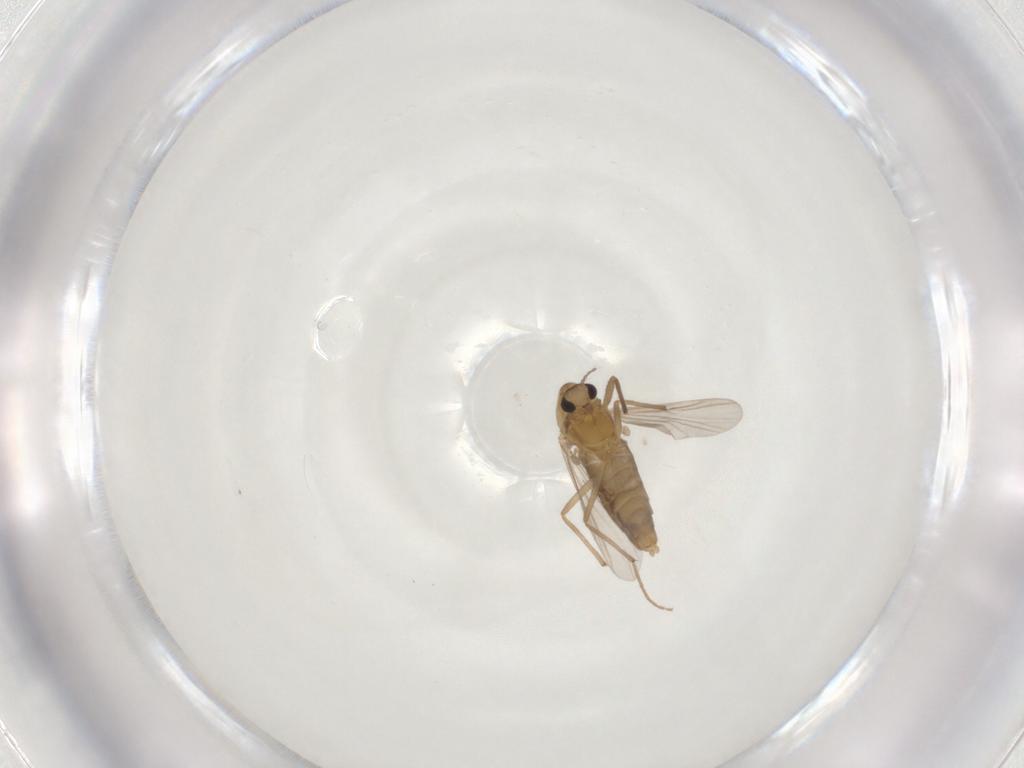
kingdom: Animalia
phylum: Arthropoda
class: Insecta
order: Diptera
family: Chironomidae
